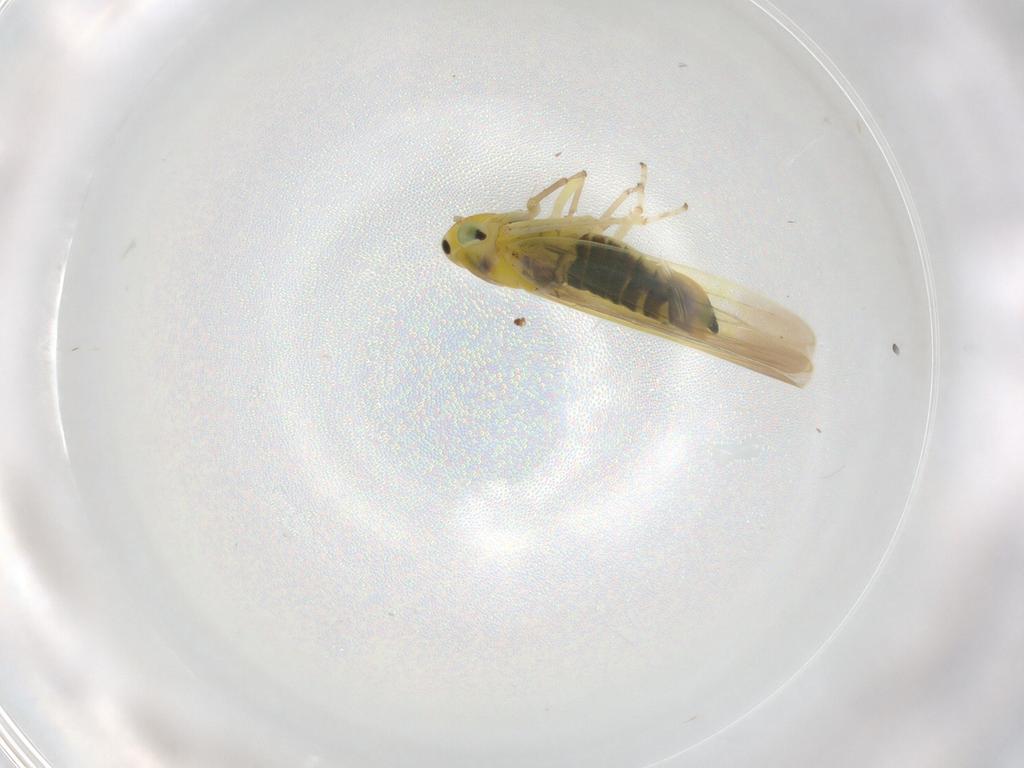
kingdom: Animalia
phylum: Arthropoda
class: Insecta
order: Hemiptera
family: Cicadellidae
